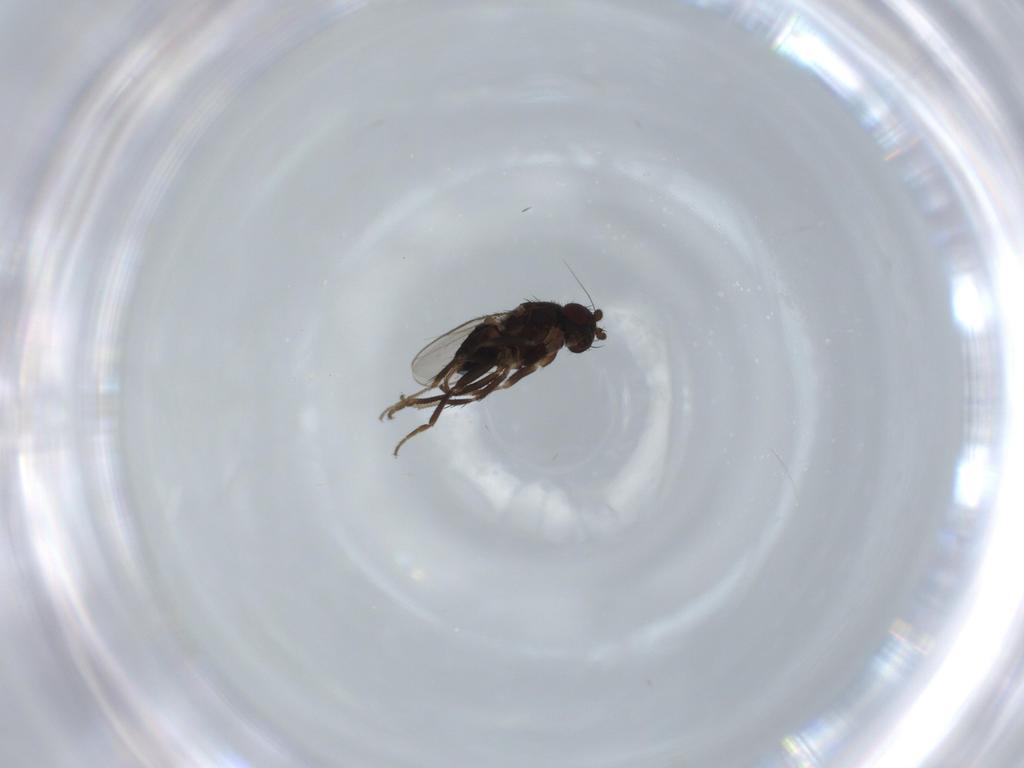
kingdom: Animalia
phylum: Arthropoda
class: Insecta
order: Diptera
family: Sphaeroceridae
